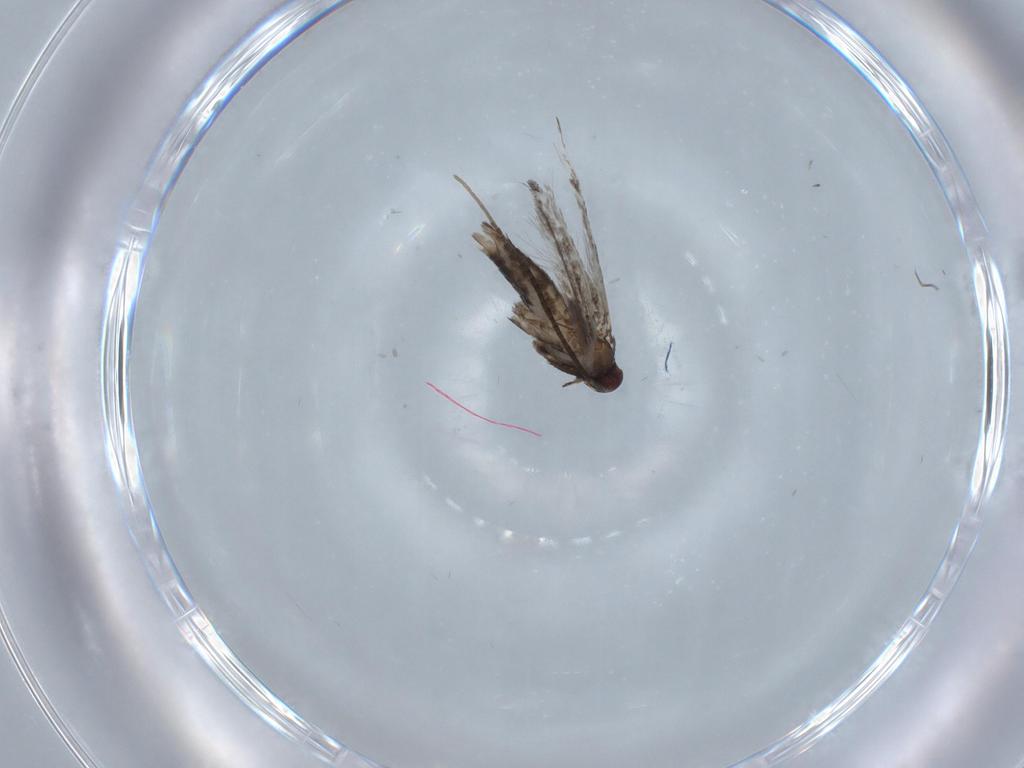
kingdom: Animalia
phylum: Arthropoda
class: Insecta
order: Lepidoptera
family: Gracillariidae
